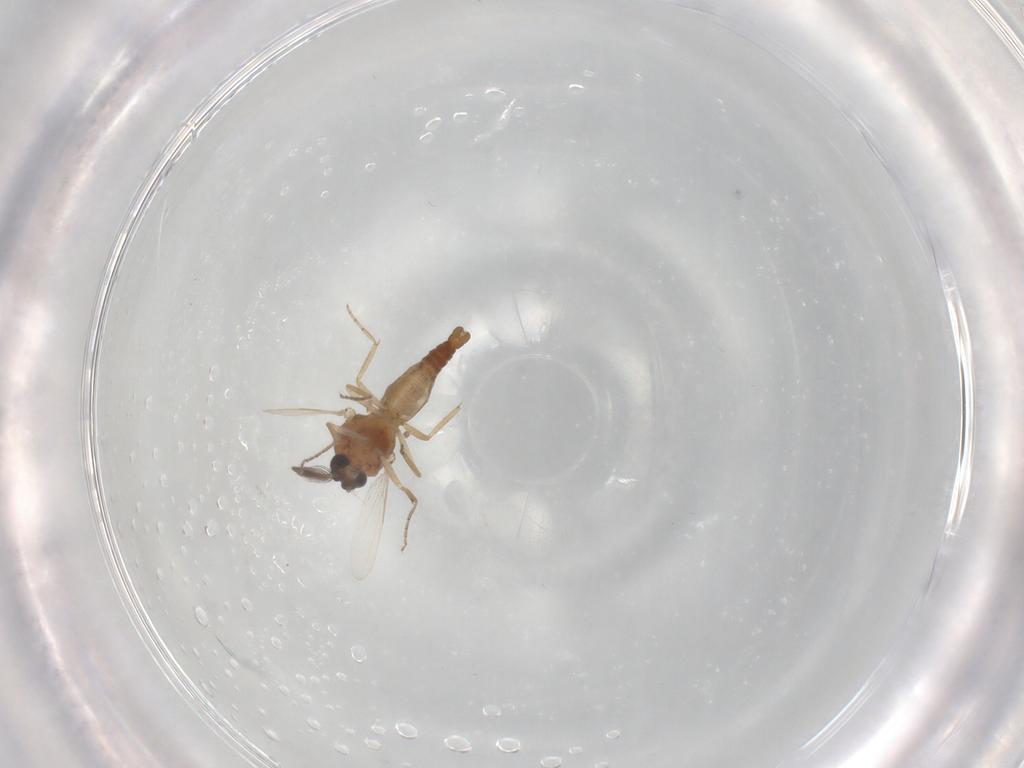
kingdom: Animalia
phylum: Arthropoda
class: Insecta
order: Diptera
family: Ceratopogonidae
